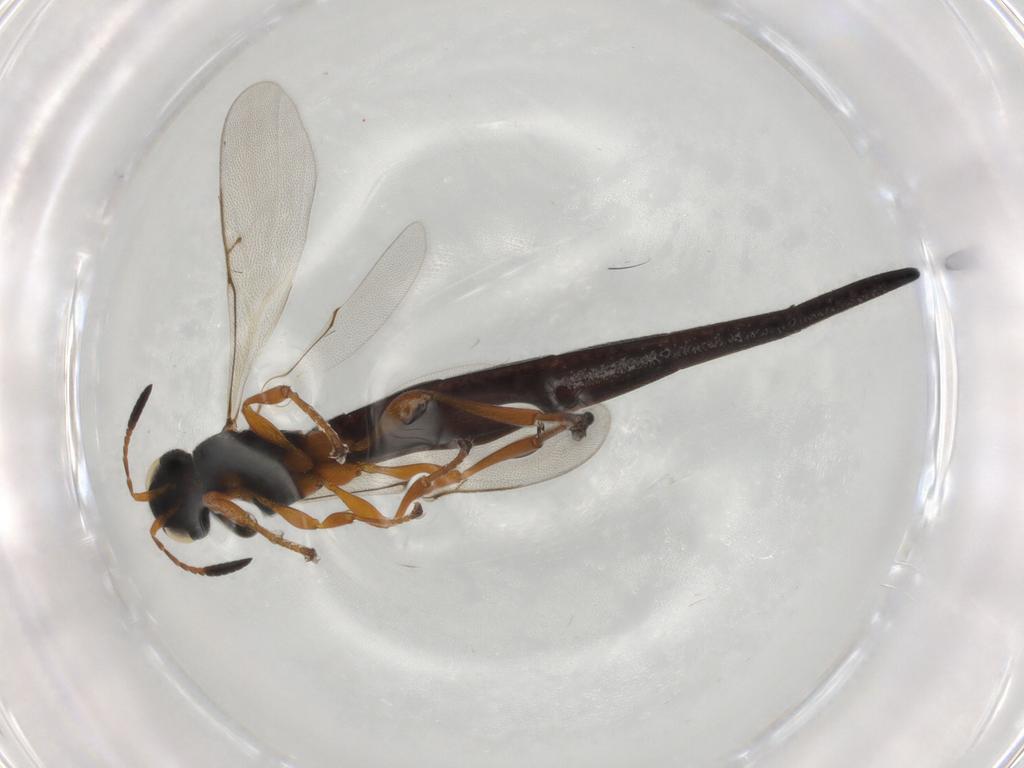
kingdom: Animalia
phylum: Arthropoda
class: Insecta
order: Hymenoptera
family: Scelionidae
